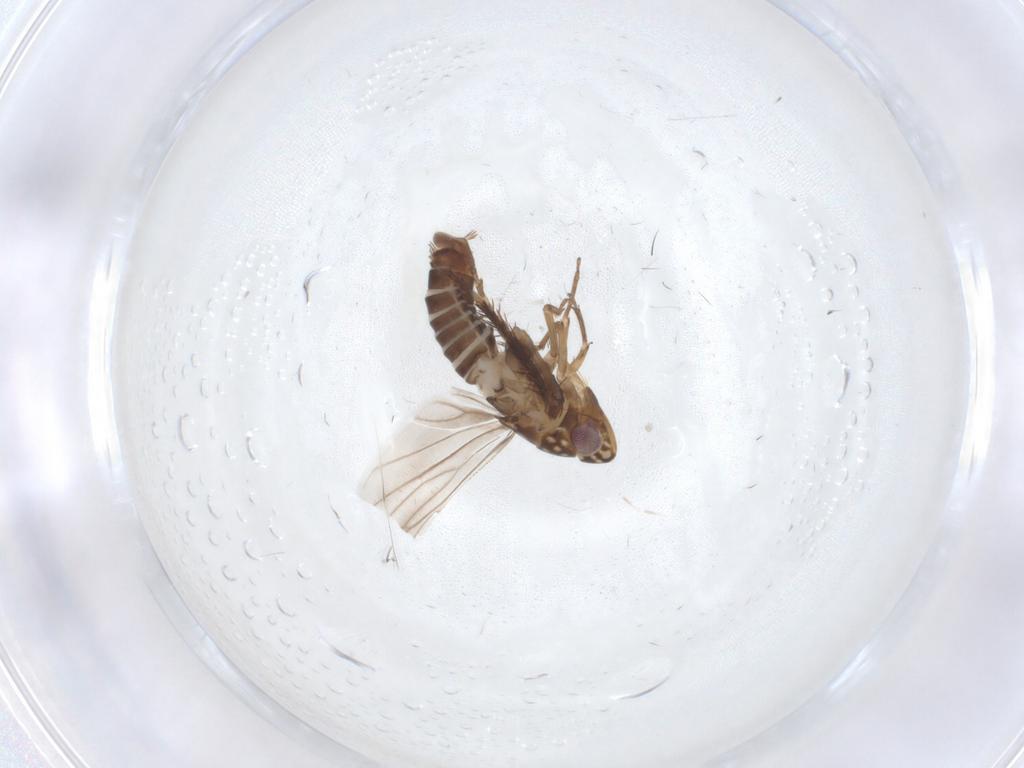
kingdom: Animalia
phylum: Arthropoda
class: Insecta
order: Hemiptera
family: Cicadellidae
